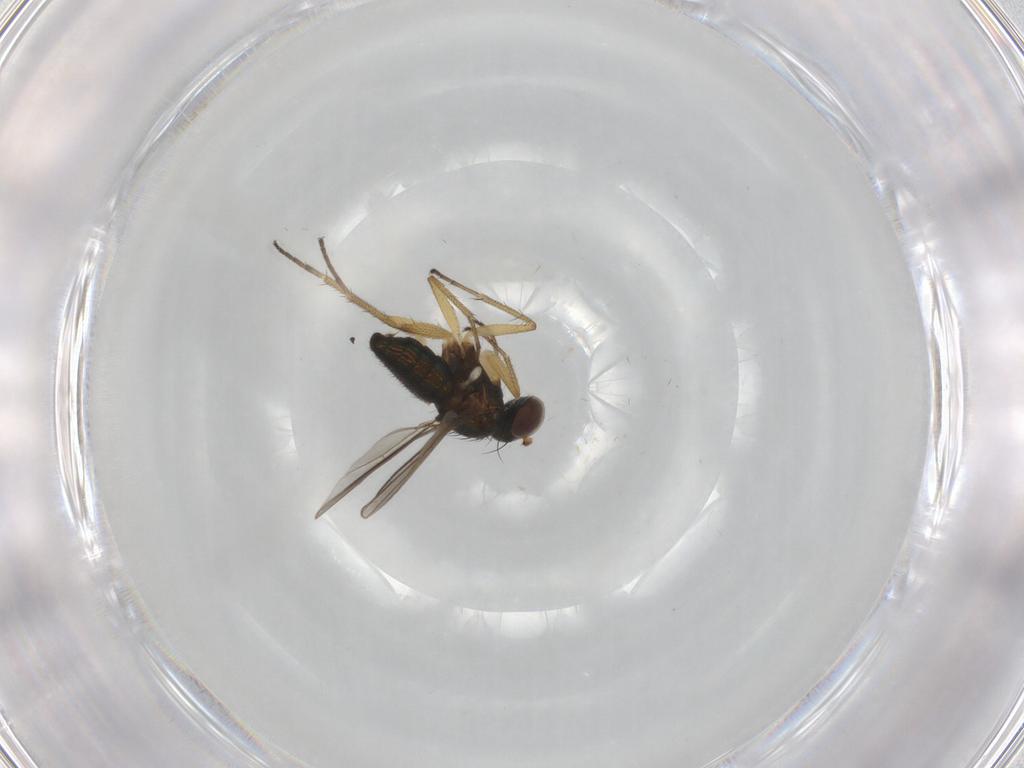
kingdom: Animalia
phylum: Arthropoda
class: Insecta
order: Diptera
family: Dolichopodidae
